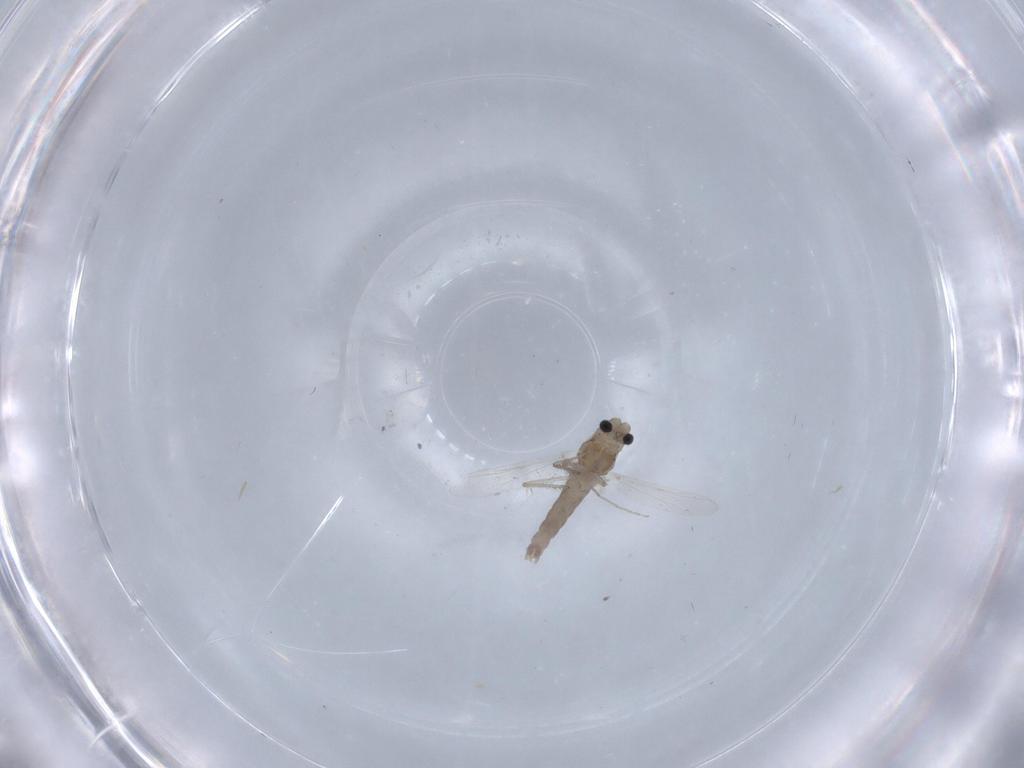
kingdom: Animalia
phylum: Arthropoda
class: Insecta
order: Diptera
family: Chironomidae
